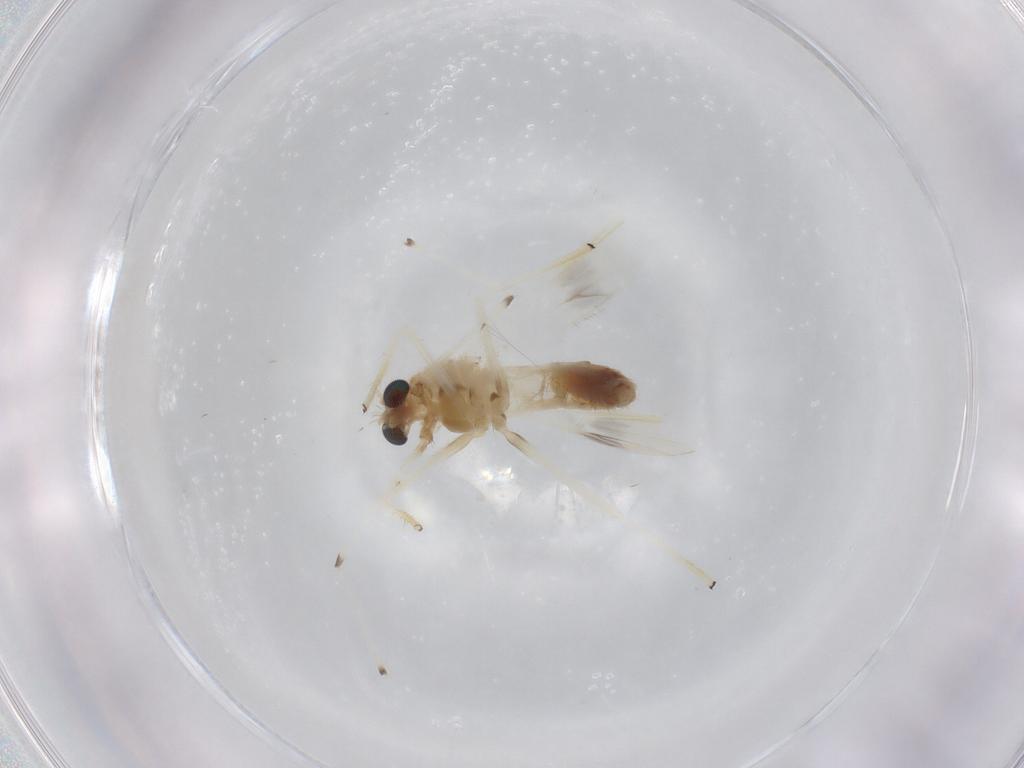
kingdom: Animalia
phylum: Arthropoda
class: Insecta
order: Diptera
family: Chironomidae
